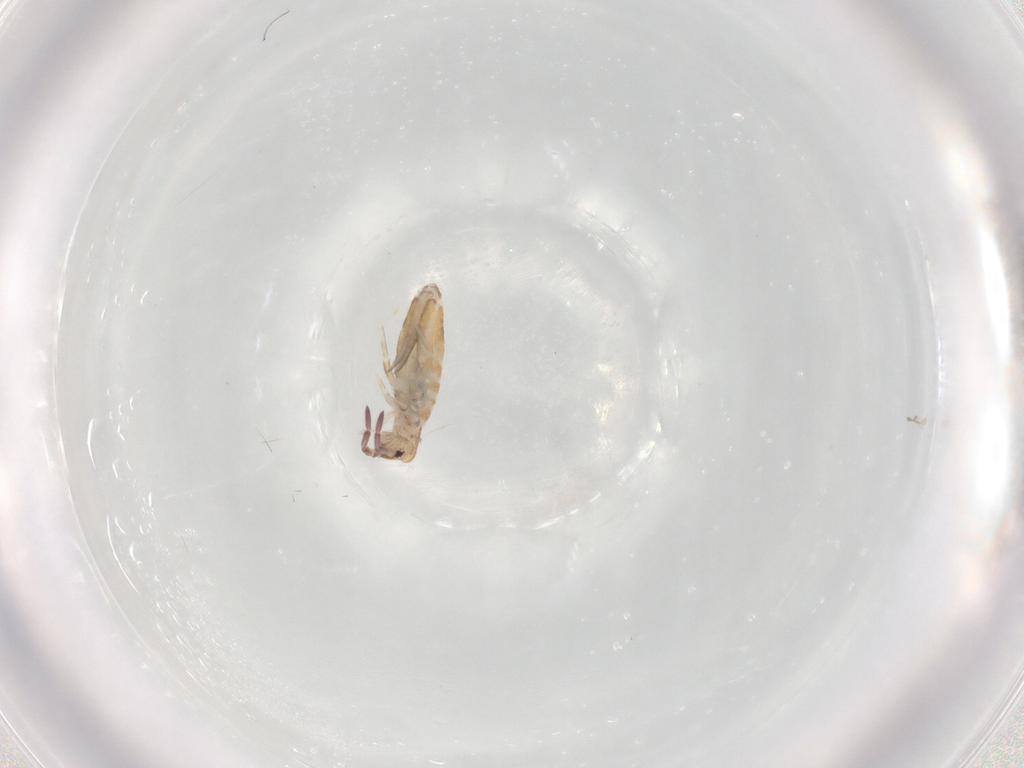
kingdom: Animalia
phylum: Arthropoda
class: Collembola
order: Entomobryomorpha
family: Entomobryidae
